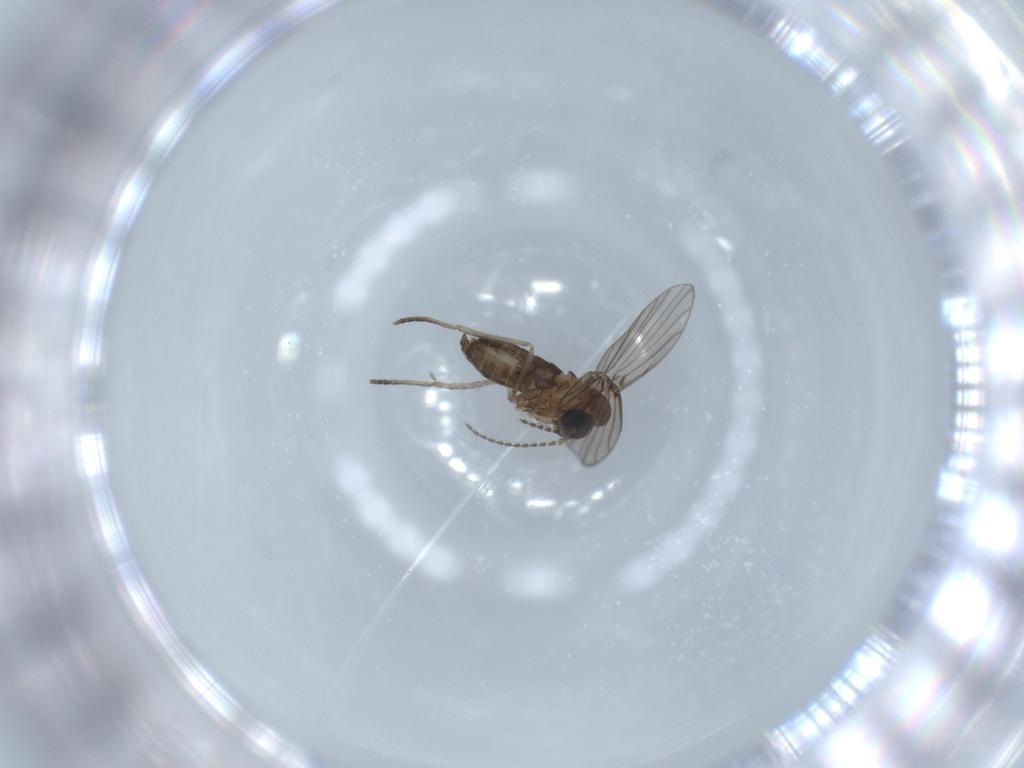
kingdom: Animalia
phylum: Arthropoda
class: Insecta
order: Diptera
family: Psychodidae
